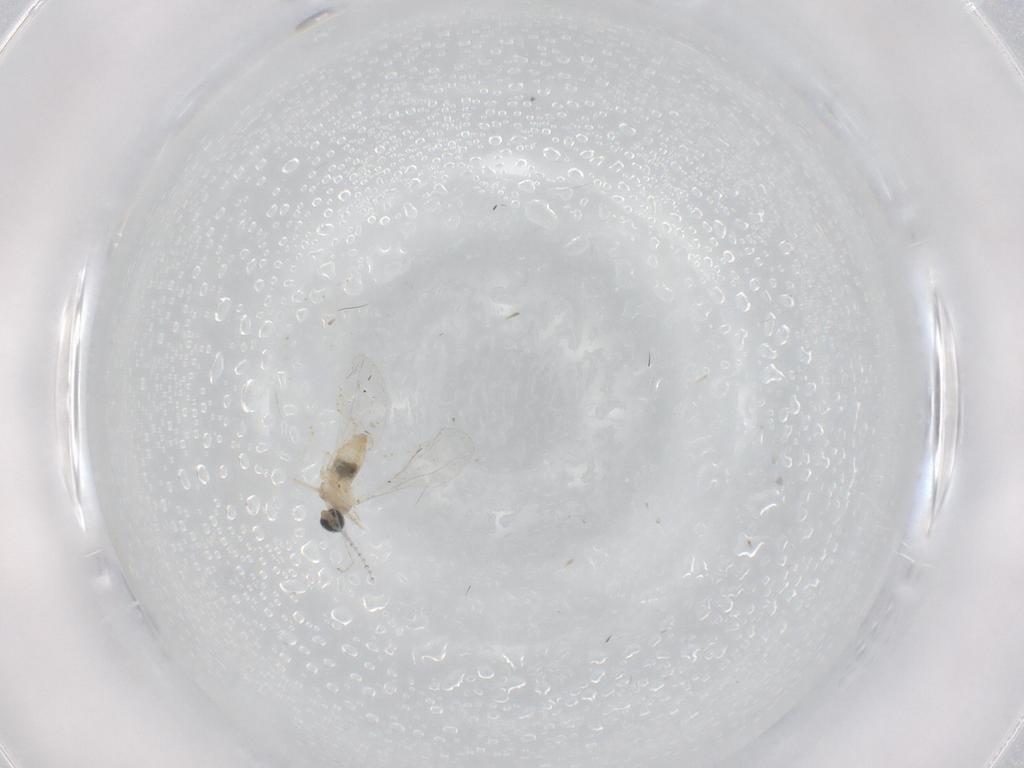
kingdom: Animalia
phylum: Arthropoda
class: Insecta
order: Diptera
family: Cecidomyiidae
